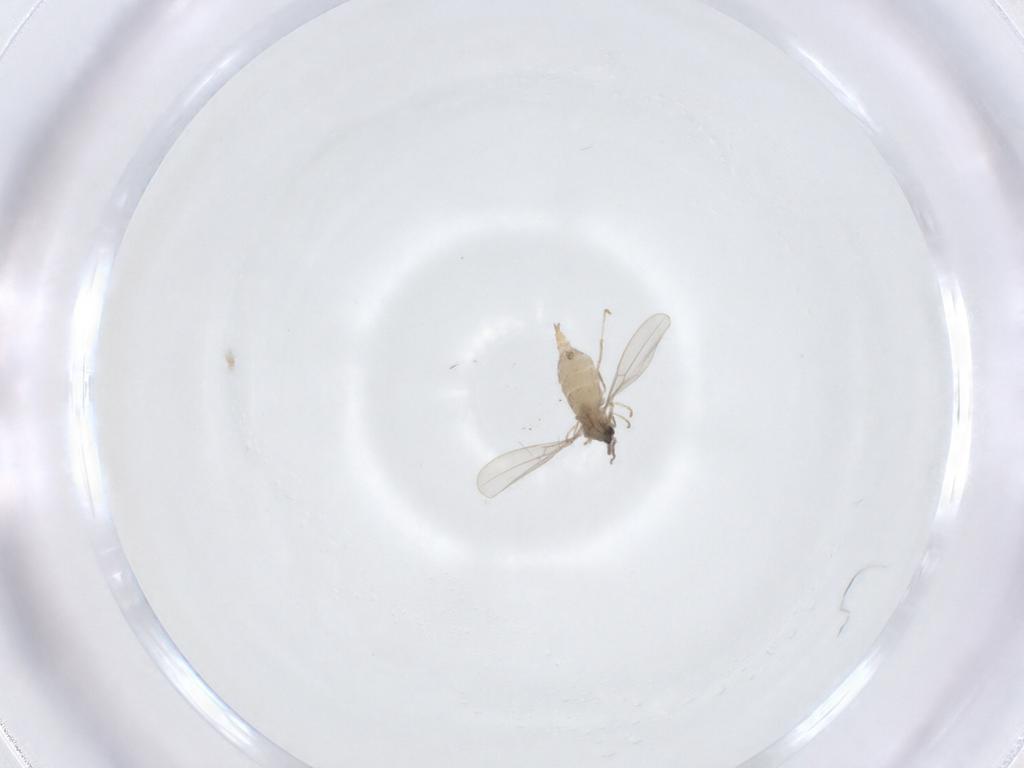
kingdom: Animalia
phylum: Arthropoda
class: Insecta
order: Diptera
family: Cecidomyiidae
